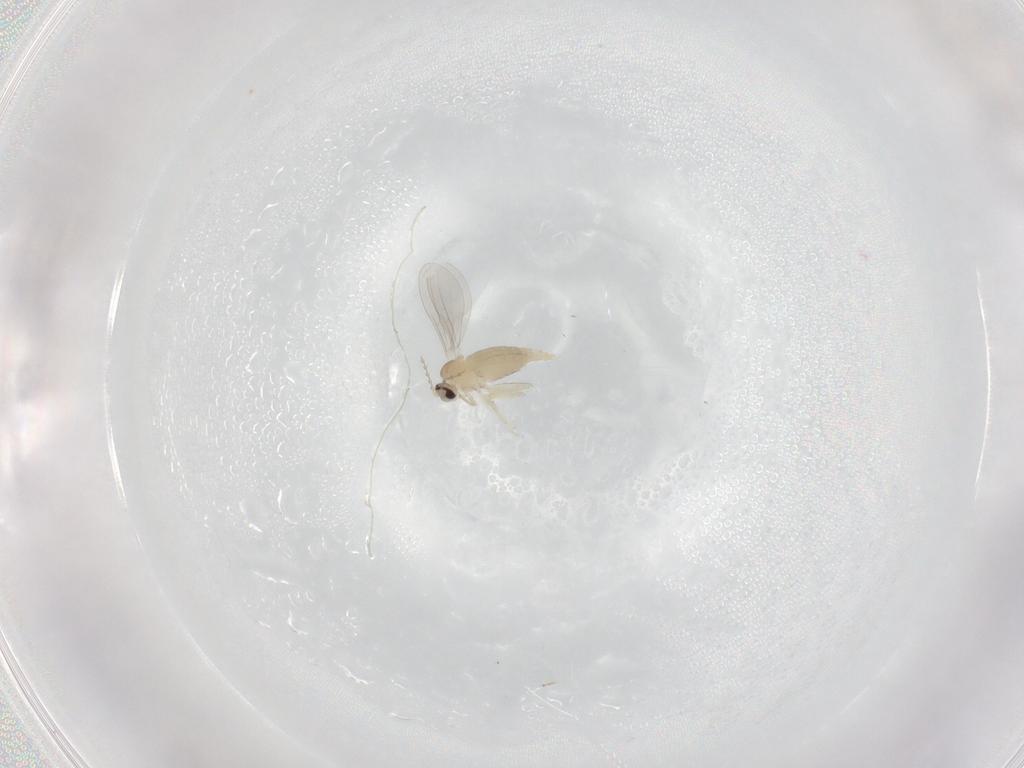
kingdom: Animalia
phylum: Arthropoda
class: Insecta
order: Diptera
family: Cecidomyiidae
